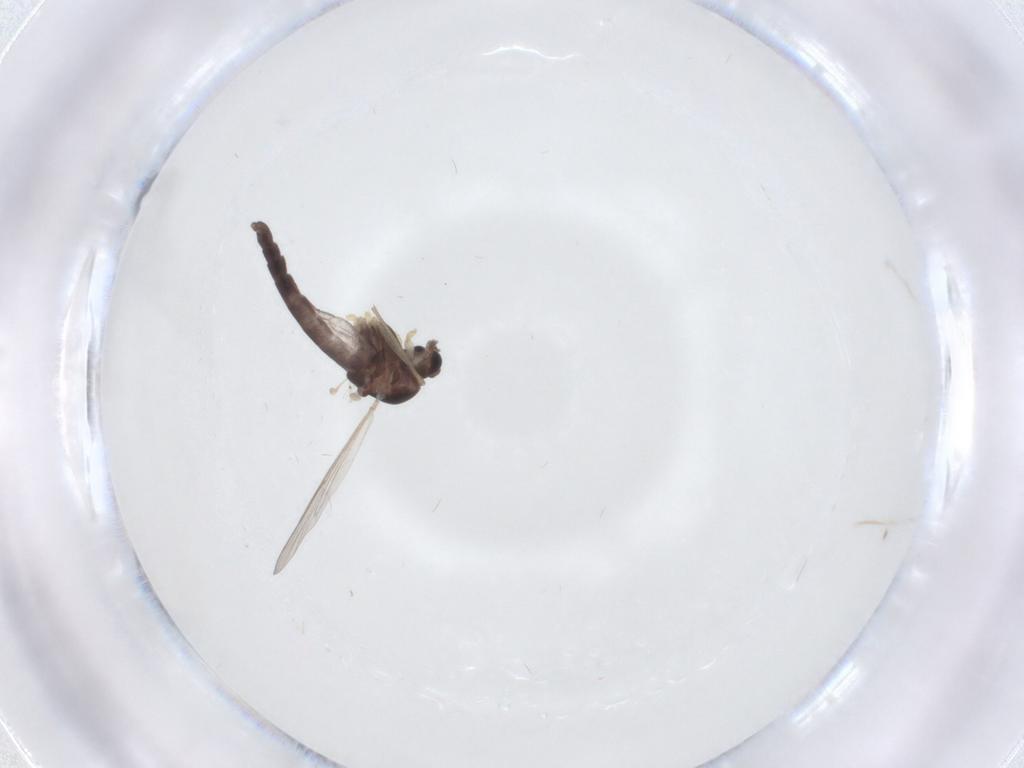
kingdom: Animalia
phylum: Arthropoda
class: Insecta
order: Diptera
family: Chironomidae
